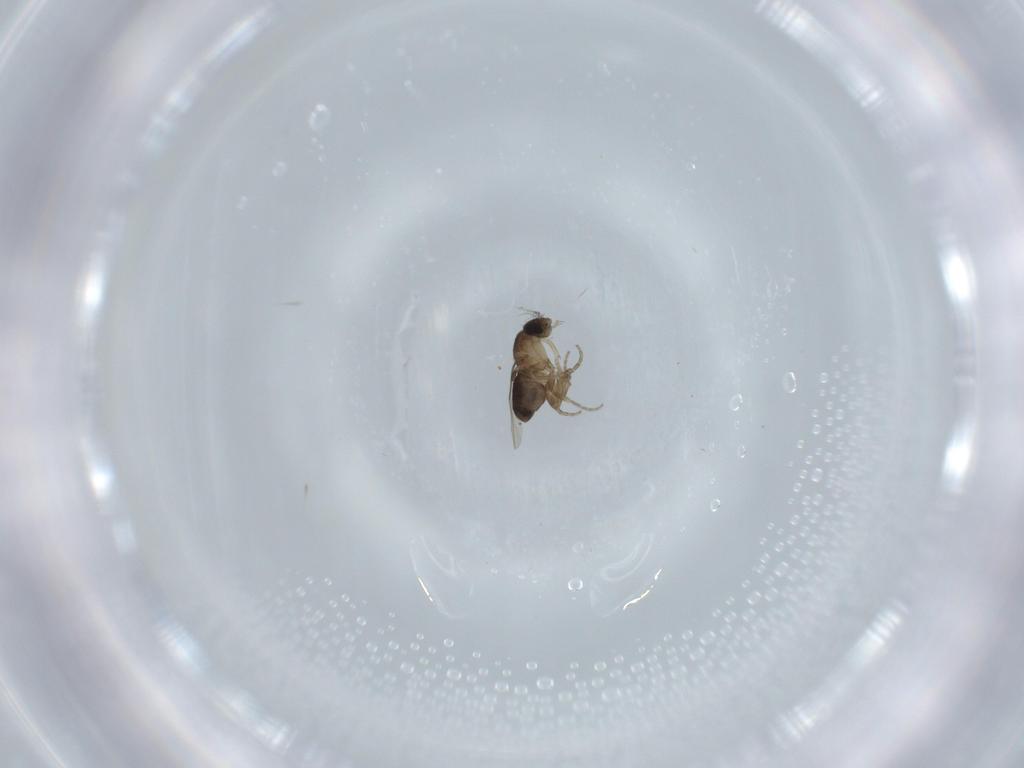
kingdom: Animalia
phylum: Arthropoda
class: Insecta
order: Diptera
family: Phoridae
